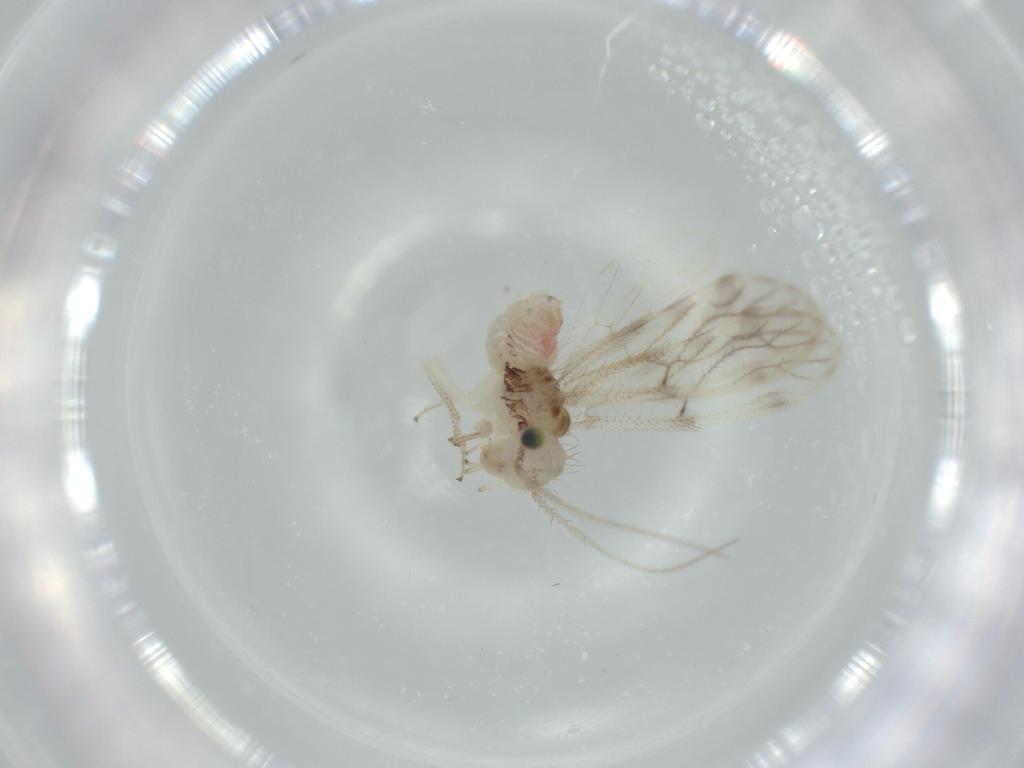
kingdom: Animalia
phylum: Arthropoda
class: Insecta
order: Psocodea
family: Pseudocaeciliidae
